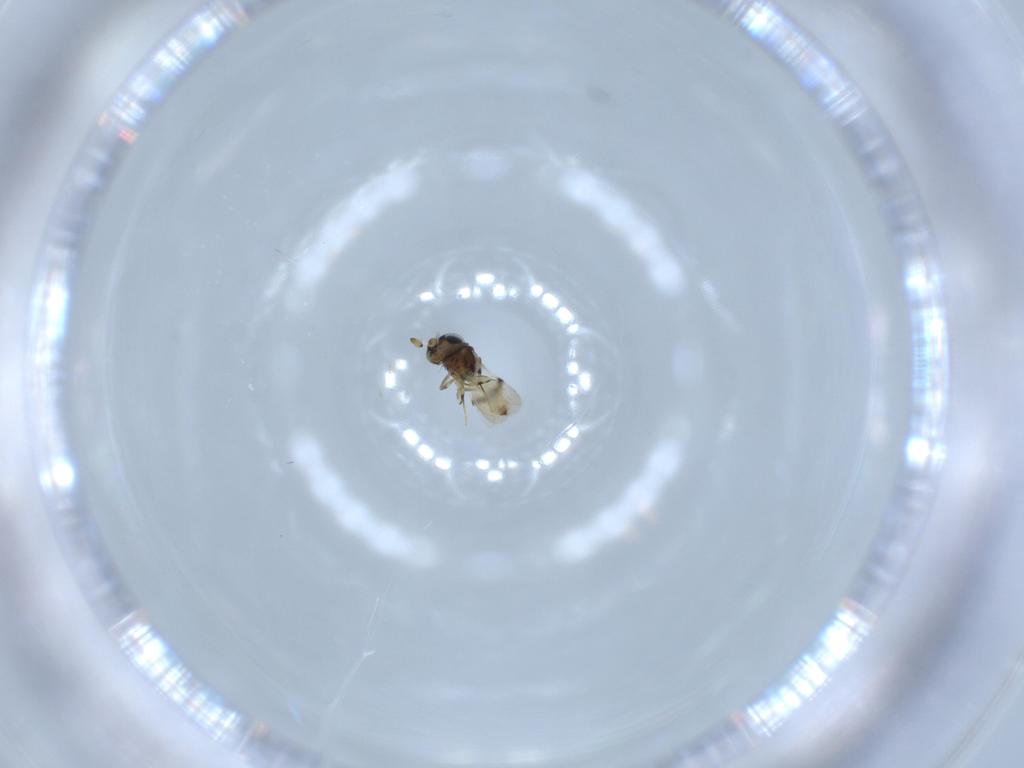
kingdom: Animalia
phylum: Arthropoda
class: Insecta
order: Hymenoptera
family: Scelionidae
